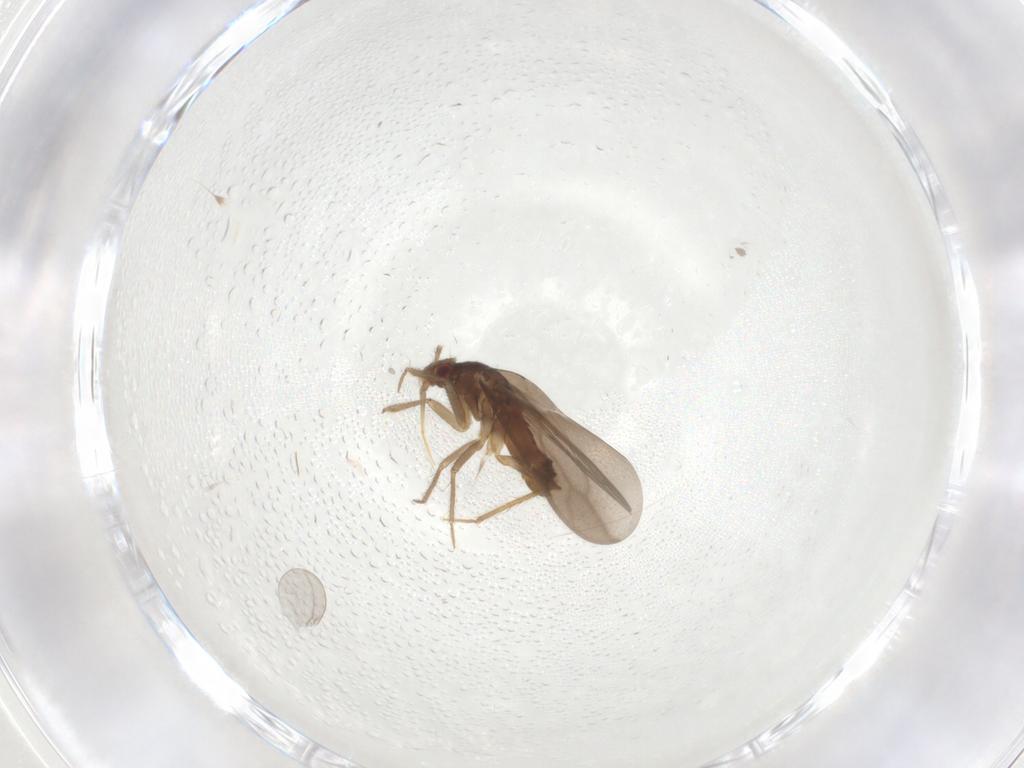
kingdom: Animalia
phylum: Arthropoda
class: Insecta
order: Hemiptera
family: Ceratocombidae
